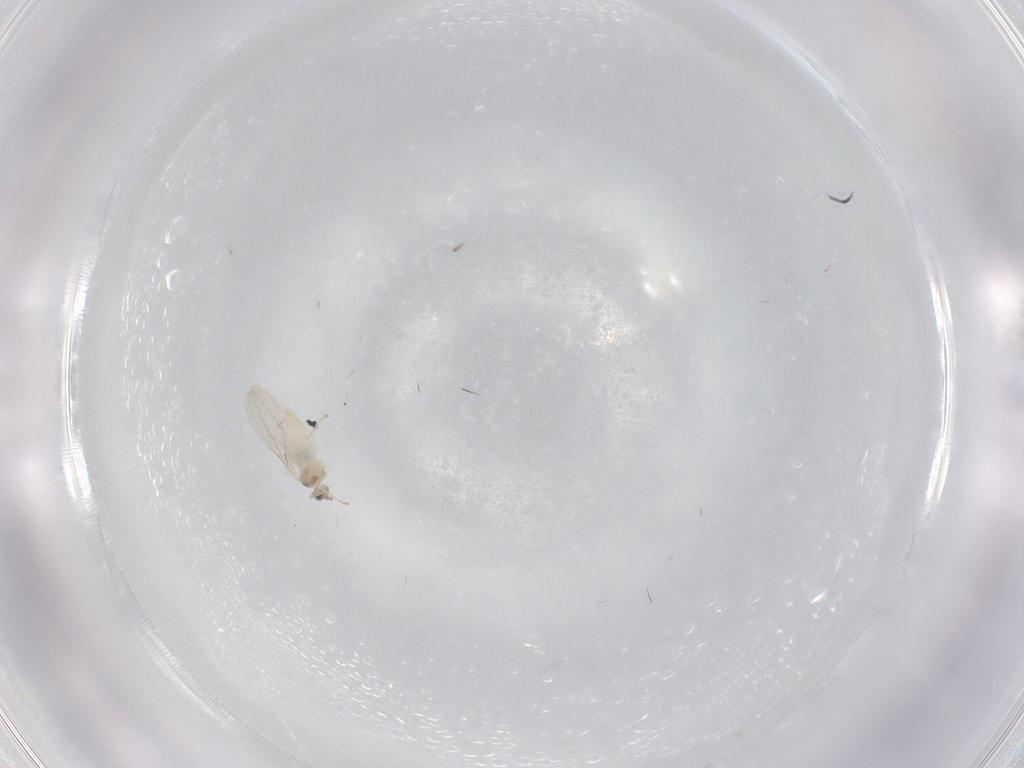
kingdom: Animalia
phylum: Arthropoda
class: Insecta
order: Diptera
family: Cecidomyiidae
